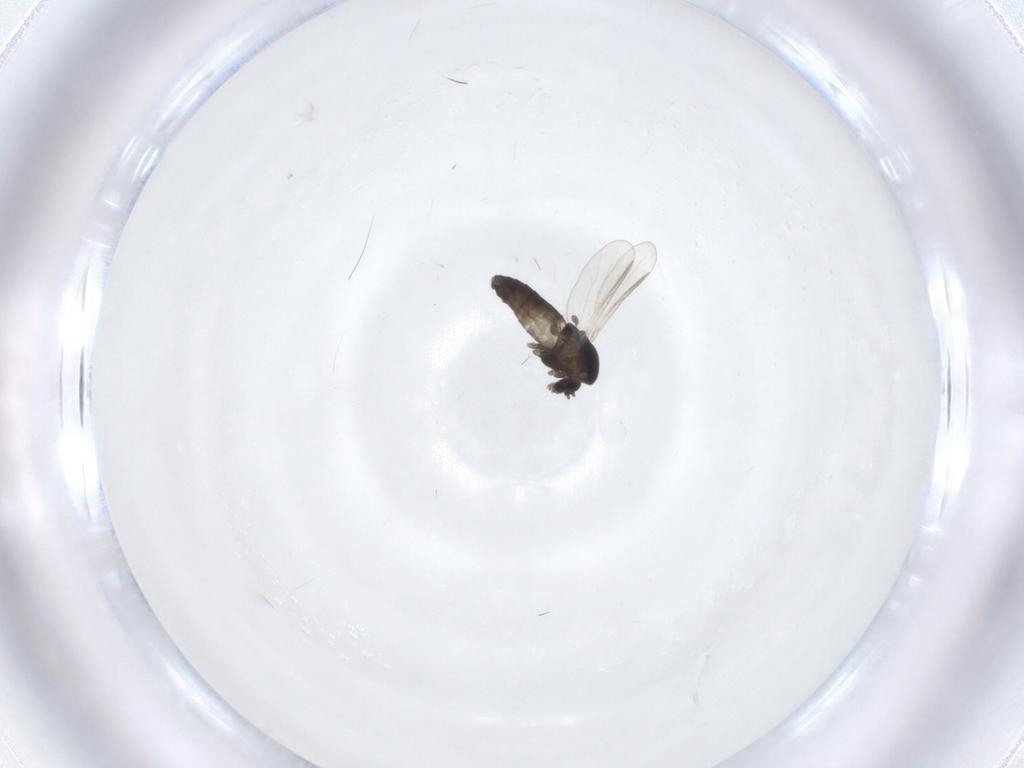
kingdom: Animalia
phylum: Arthropoda
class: Insecta
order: Diptera
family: Chironomidae
